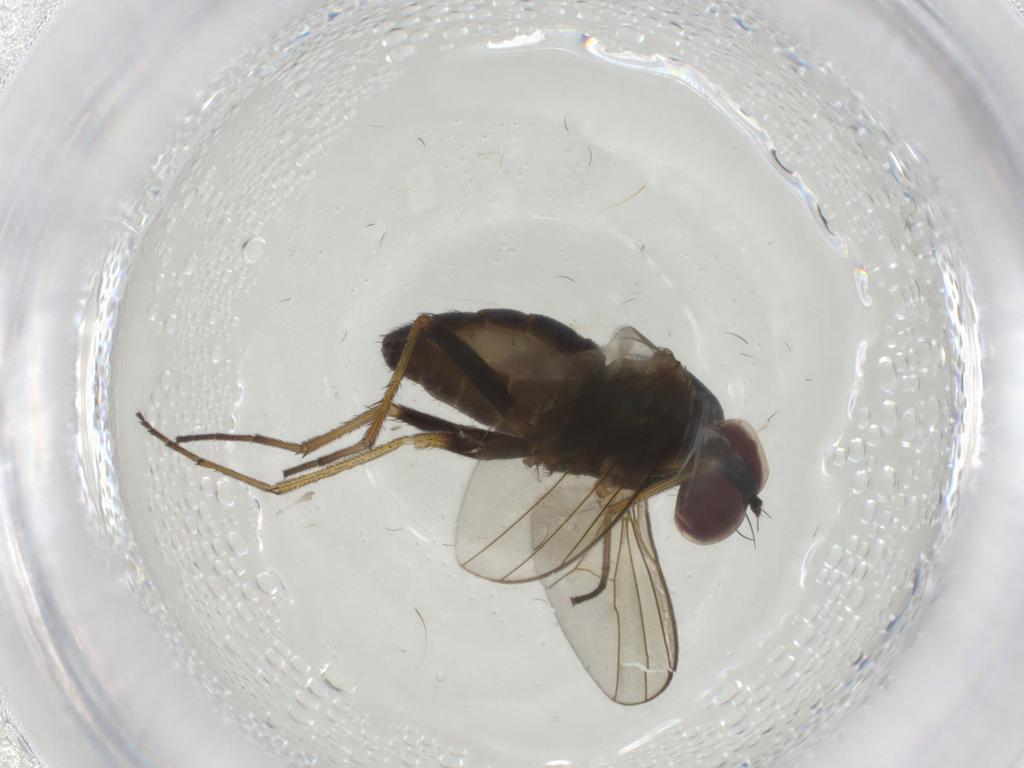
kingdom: Animalia
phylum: Arthropoda
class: Insecta
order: Diptera
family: Dolichopodidae
